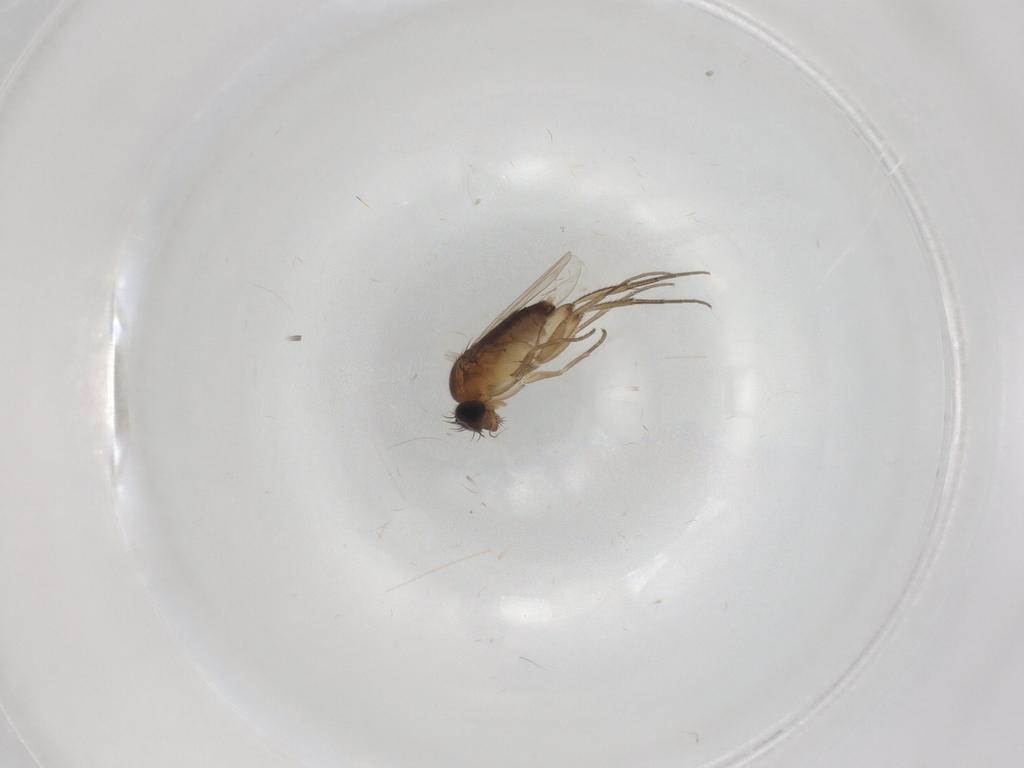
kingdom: Animalia
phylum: Arthropoda
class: Insecta
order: Diptera
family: Phoridae
